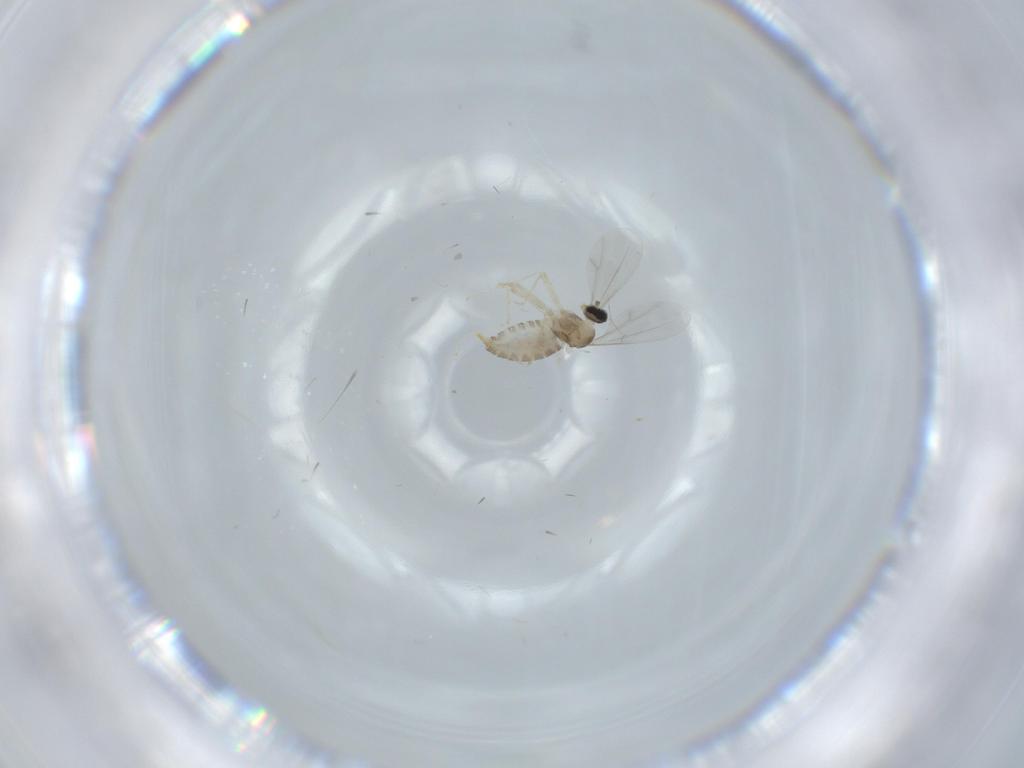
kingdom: Animalia
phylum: Arthropoda
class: Insecta
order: Diptera
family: Cecidomyiidae
